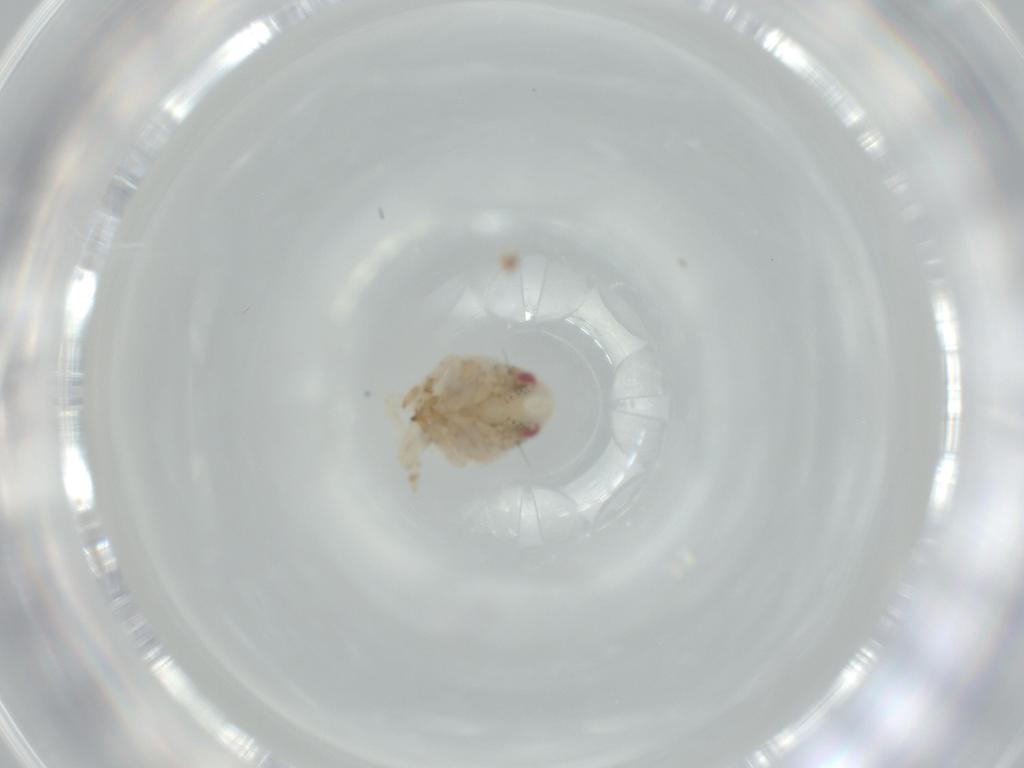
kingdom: Animalia
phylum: Arthropoda
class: Insecta
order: Hemiptera
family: Acanaloniidae
